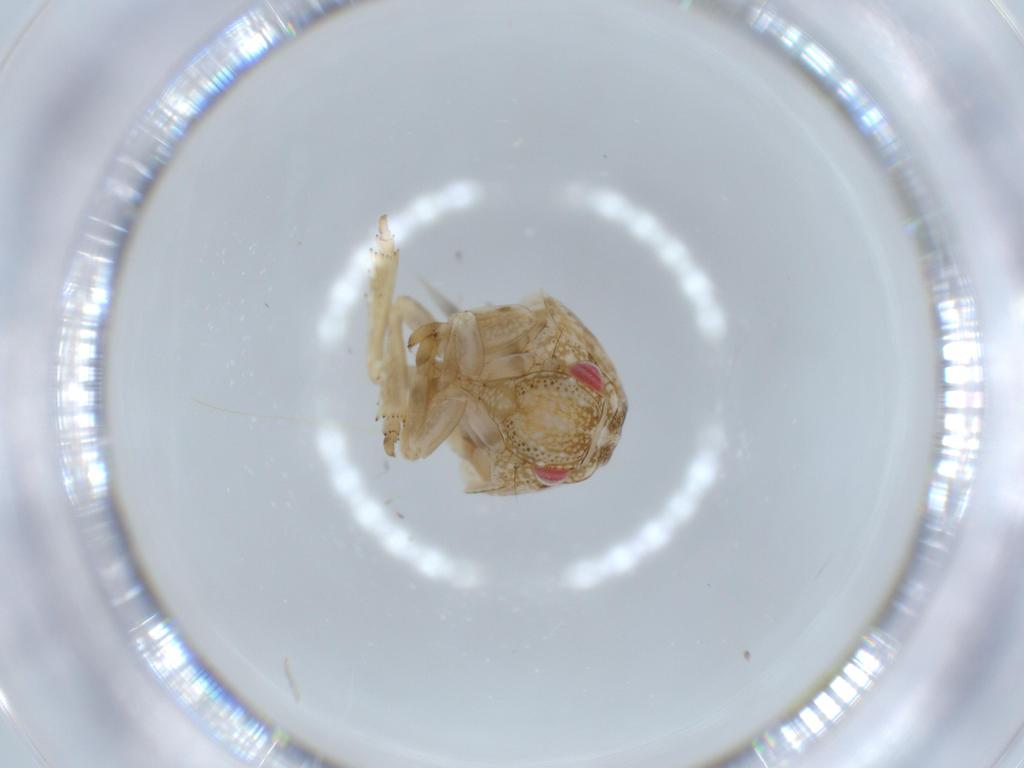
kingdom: Animalia
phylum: Arthropoda
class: Insecta
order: Hemiptera
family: Acanaloniidae
